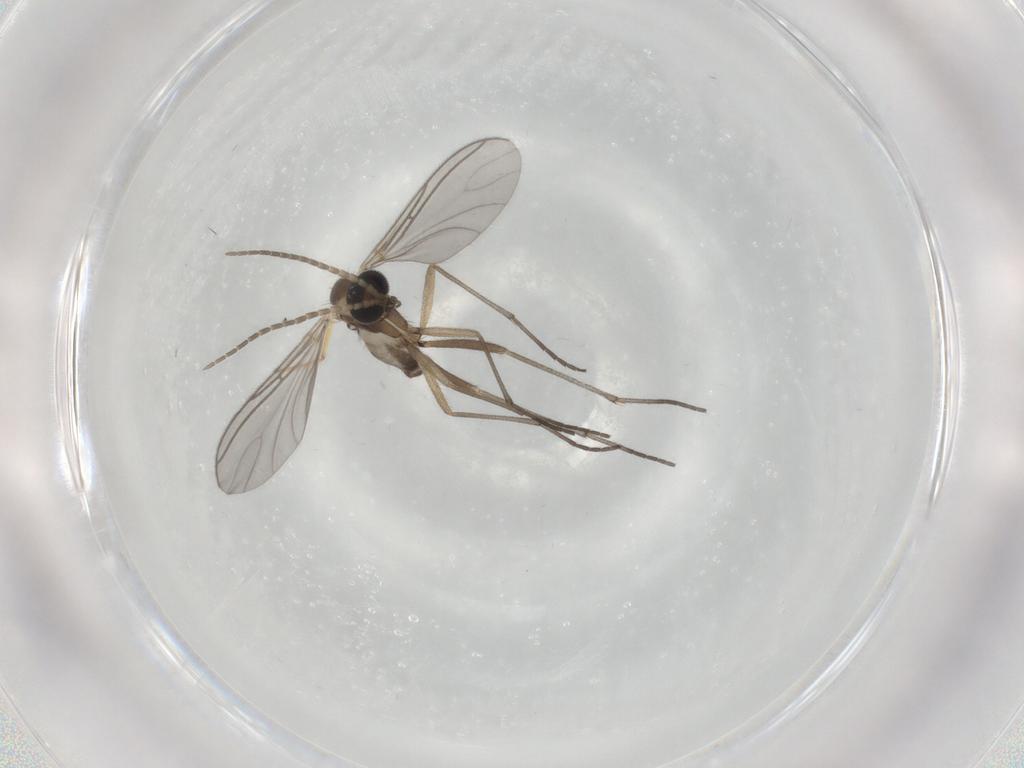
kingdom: Animalia
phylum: Arthropoda
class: Insecta
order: Diptera
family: Sciaridae
